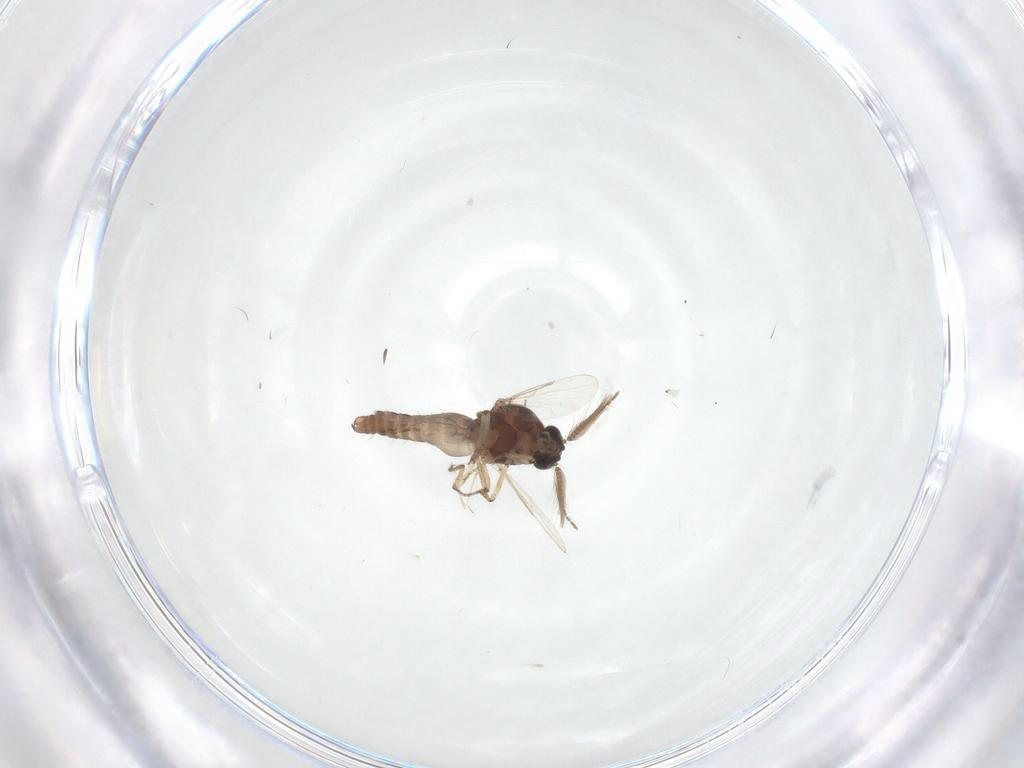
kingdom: Animalia
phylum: Arthropoda
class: Insecta
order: Diptera
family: Ceratopogonidae
